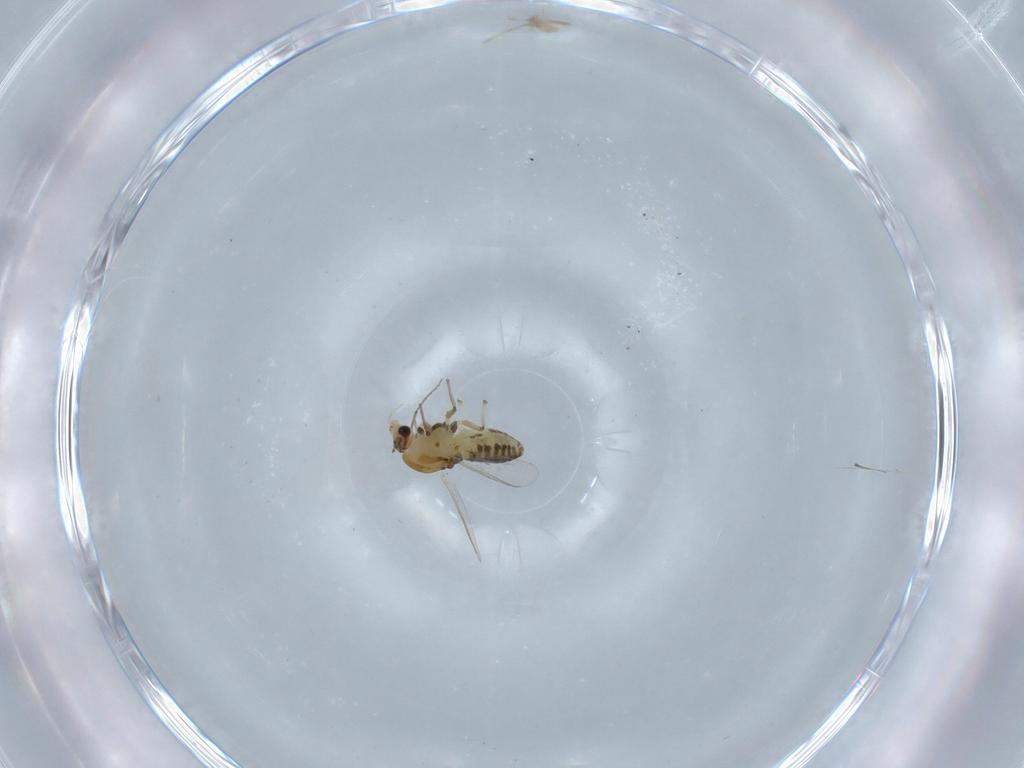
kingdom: Animalia
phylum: Arthropoda
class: Insecta
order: Diptera
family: Chironomidae
